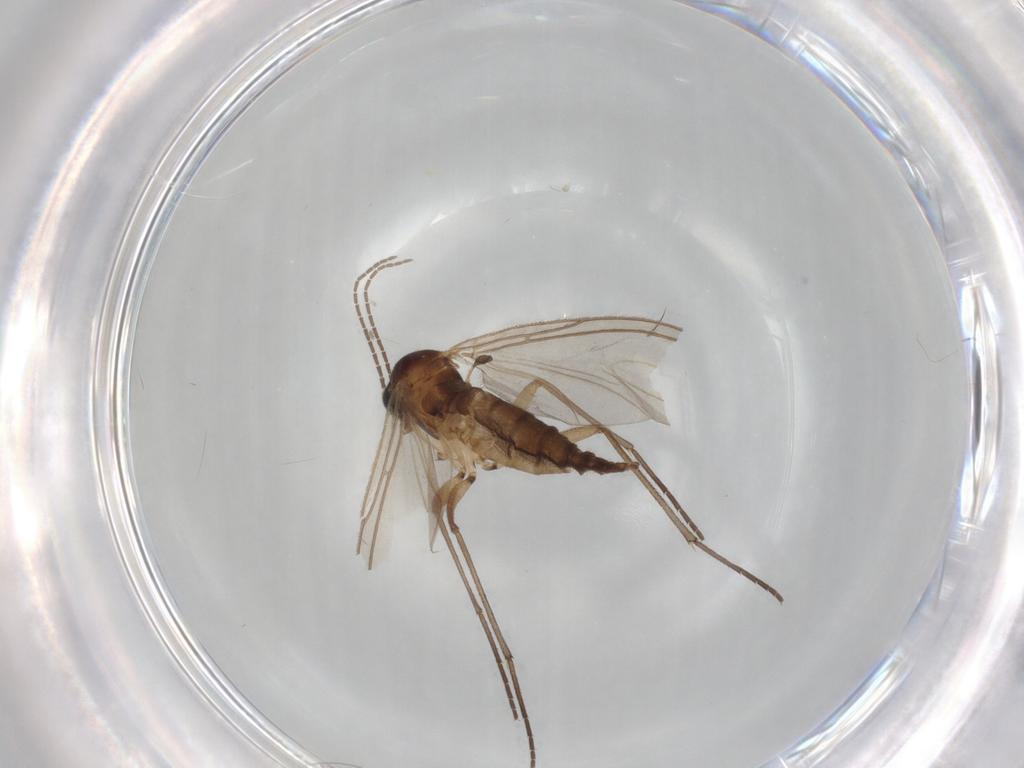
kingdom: Animalia
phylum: Arthropoda
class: Insecta
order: Diptera
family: Sciaridae
